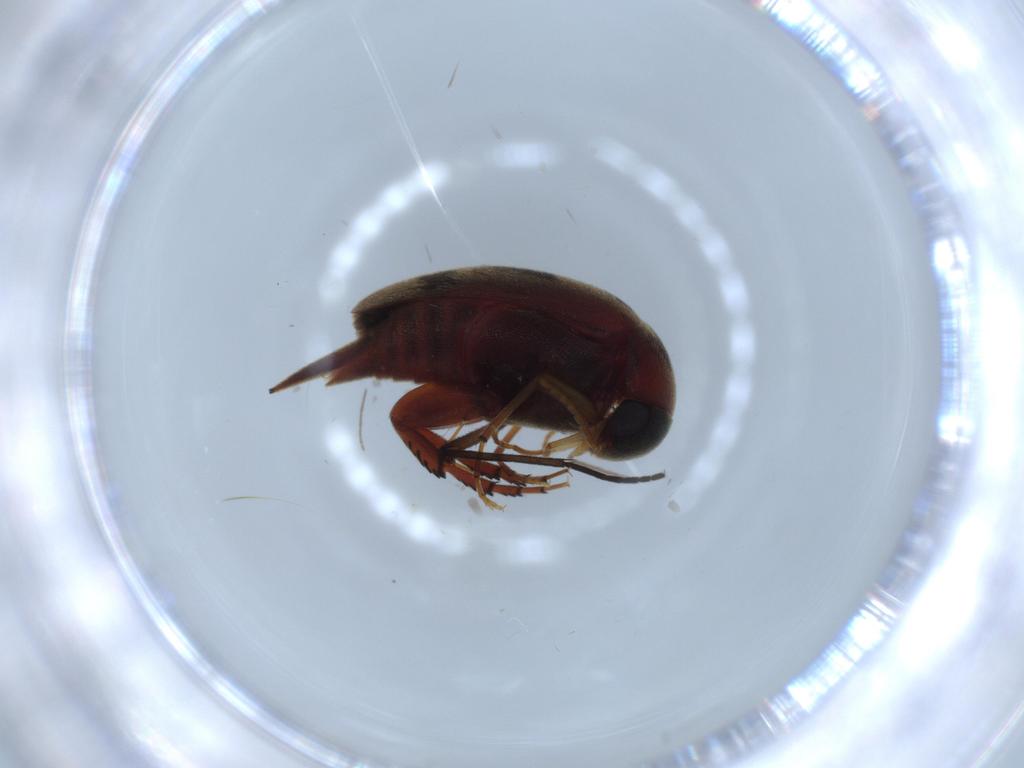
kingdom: Animalia
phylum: Arthropoda
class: Insecta
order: Coleoptera
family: Mordellidae
